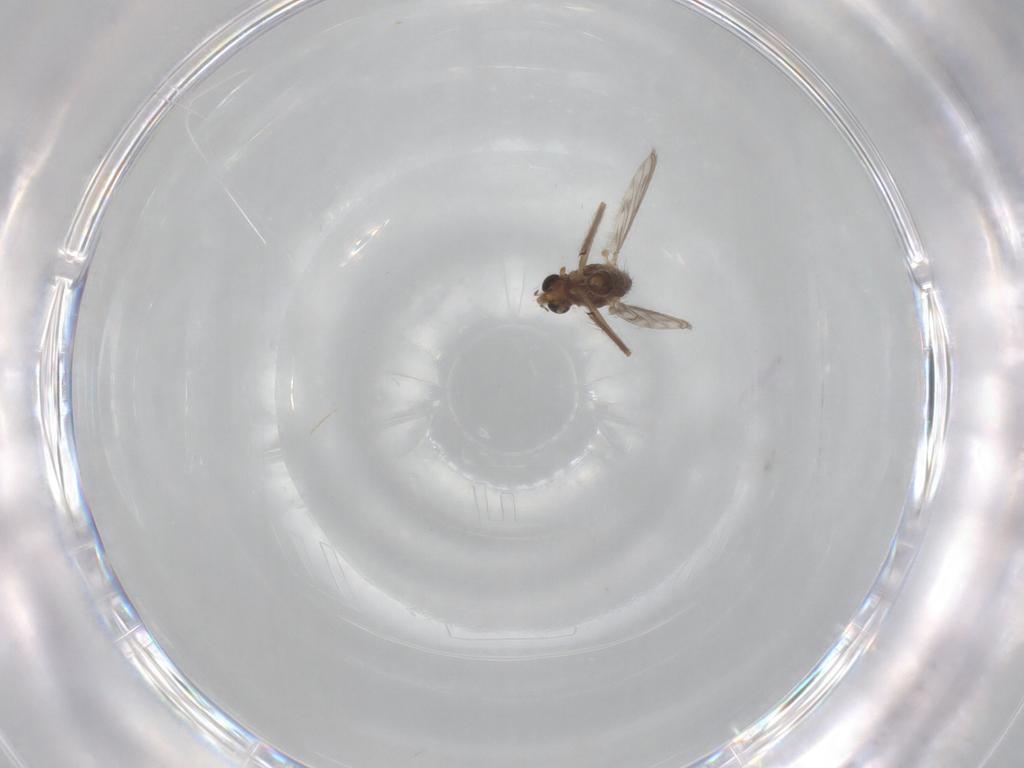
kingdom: Animalia
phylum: Arthropoda
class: Insecta
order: Diptera
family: Chironomidae
